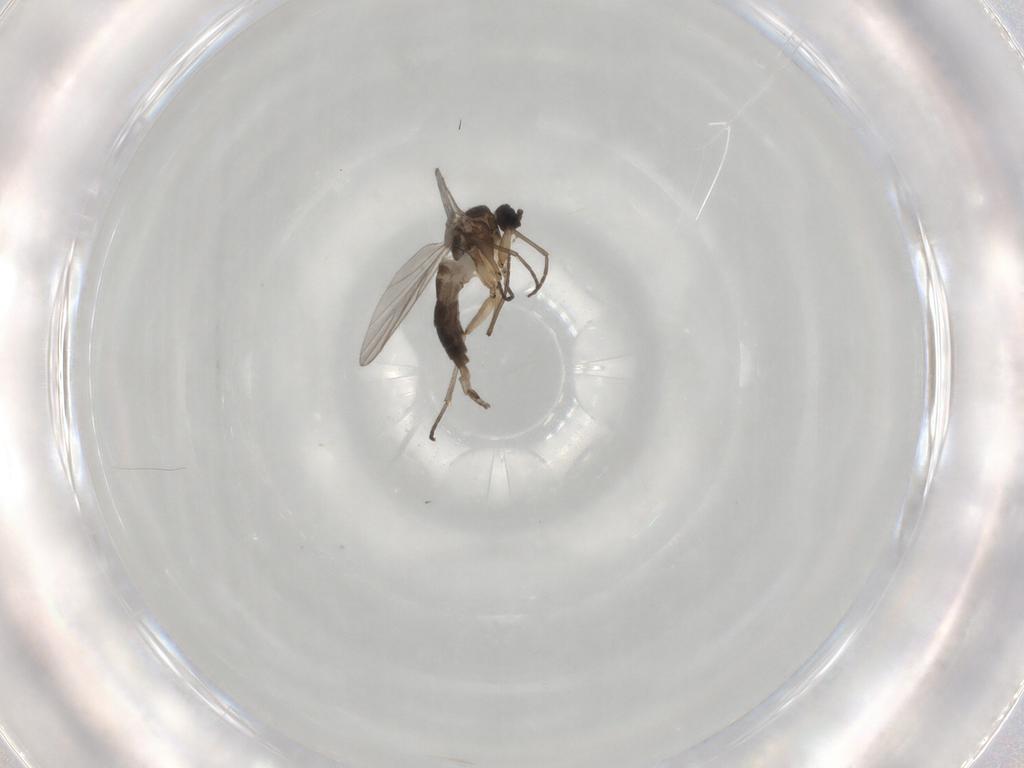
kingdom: Animalia
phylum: Arthropoda
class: Insecta
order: Diptera
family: Sciaridae
